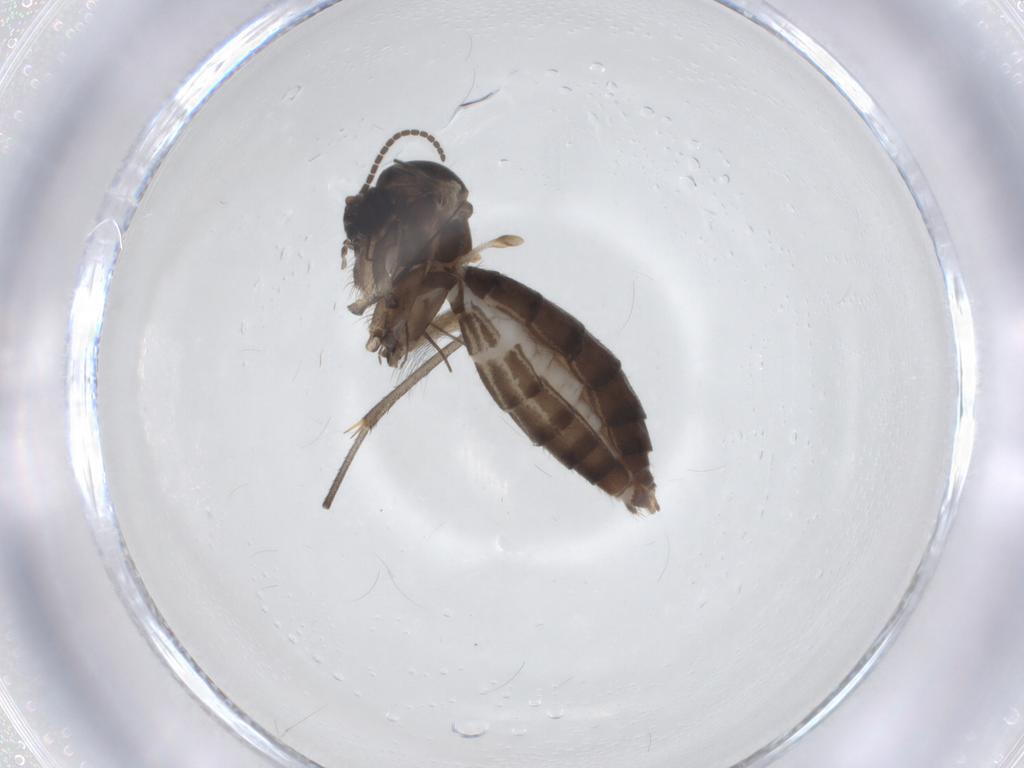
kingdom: Animalia
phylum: Arthropoda
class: Insecta
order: Diptera
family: Mycetophilidae
